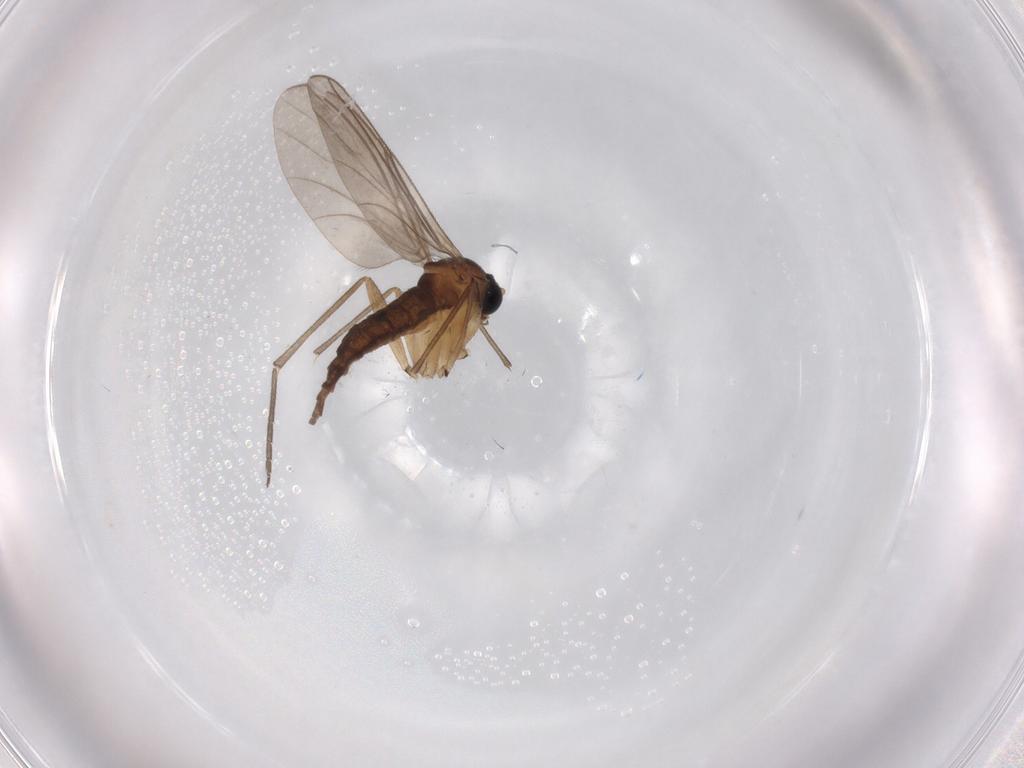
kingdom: Animalia
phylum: Arthropoda
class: Insecta
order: Diptera
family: Sciaridae
